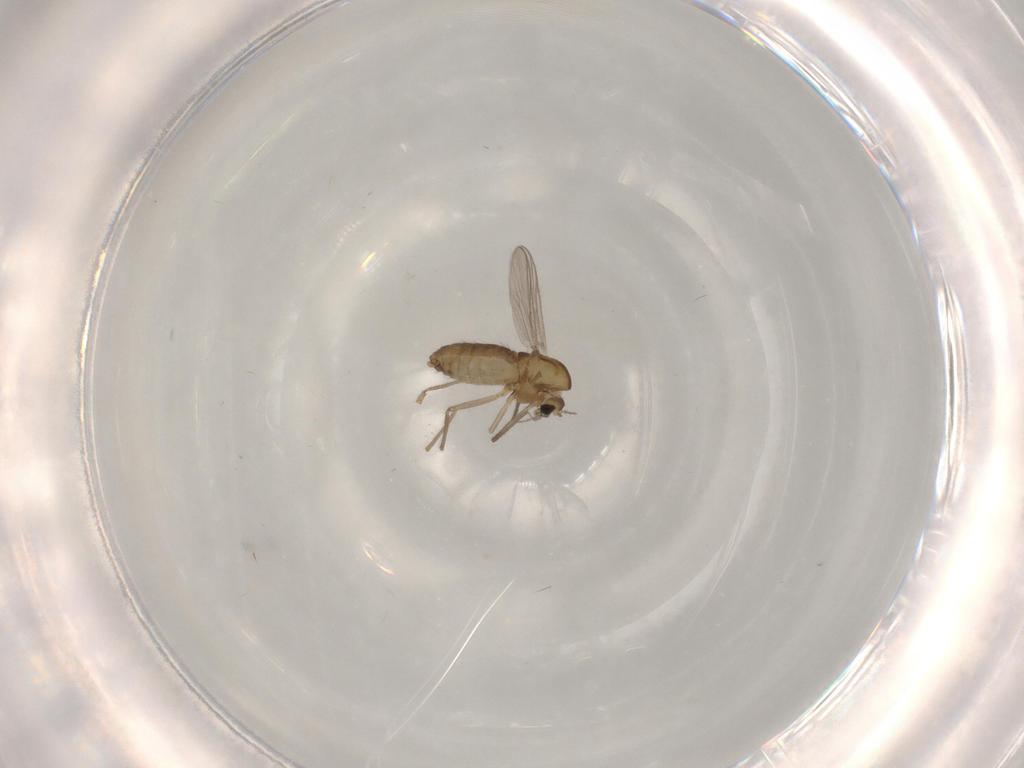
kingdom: Animalia
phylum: Arthropoda
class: Insecta
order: Diptera
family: Chironomidae
